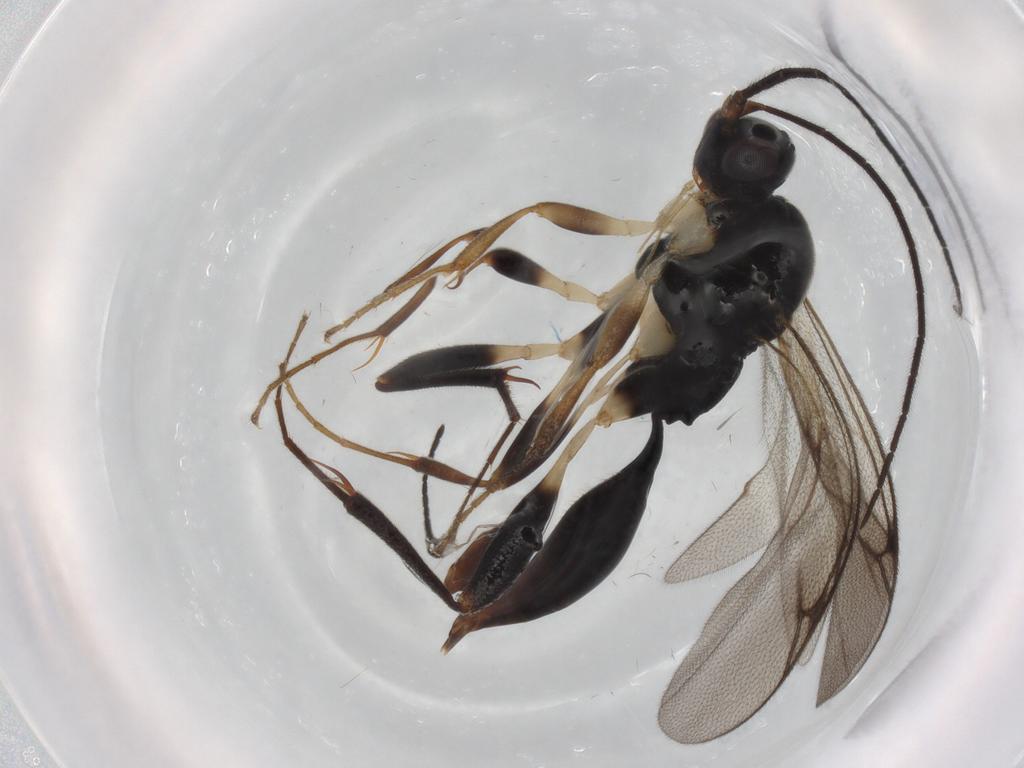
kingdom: Animalia
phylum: Arthropoda
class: Insecta
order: Hymenoptera
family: Proctotrupidae
